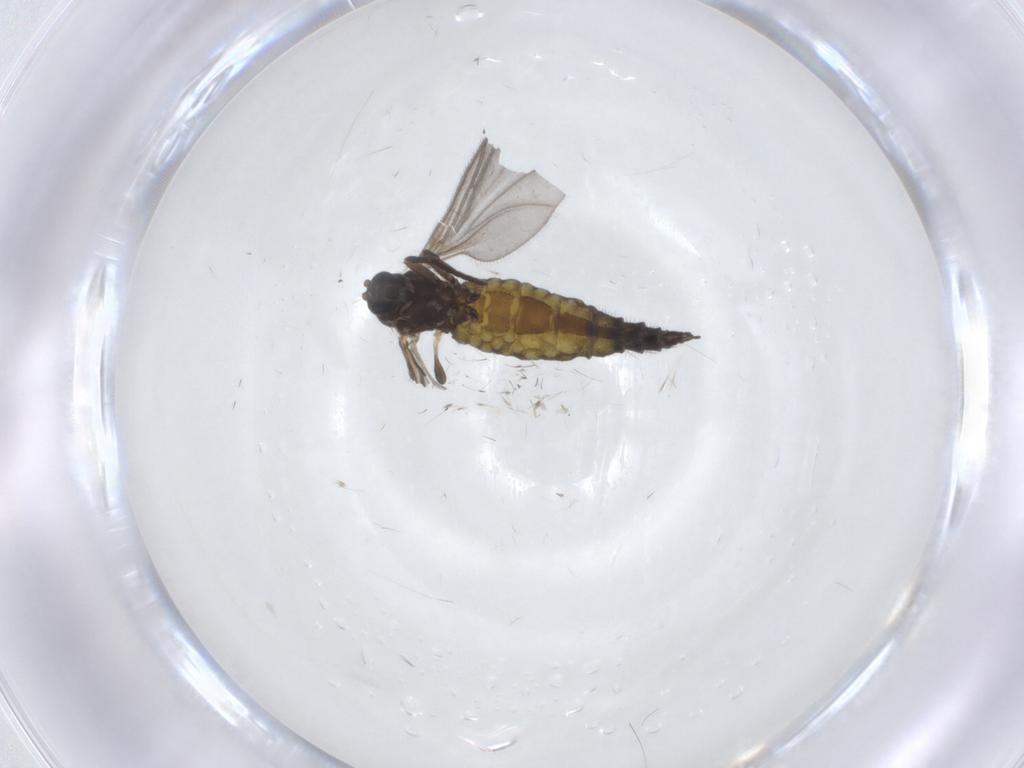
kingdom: Animalia
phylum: Arthropoda
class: Insecta
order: Diptera
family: Sciaridae
